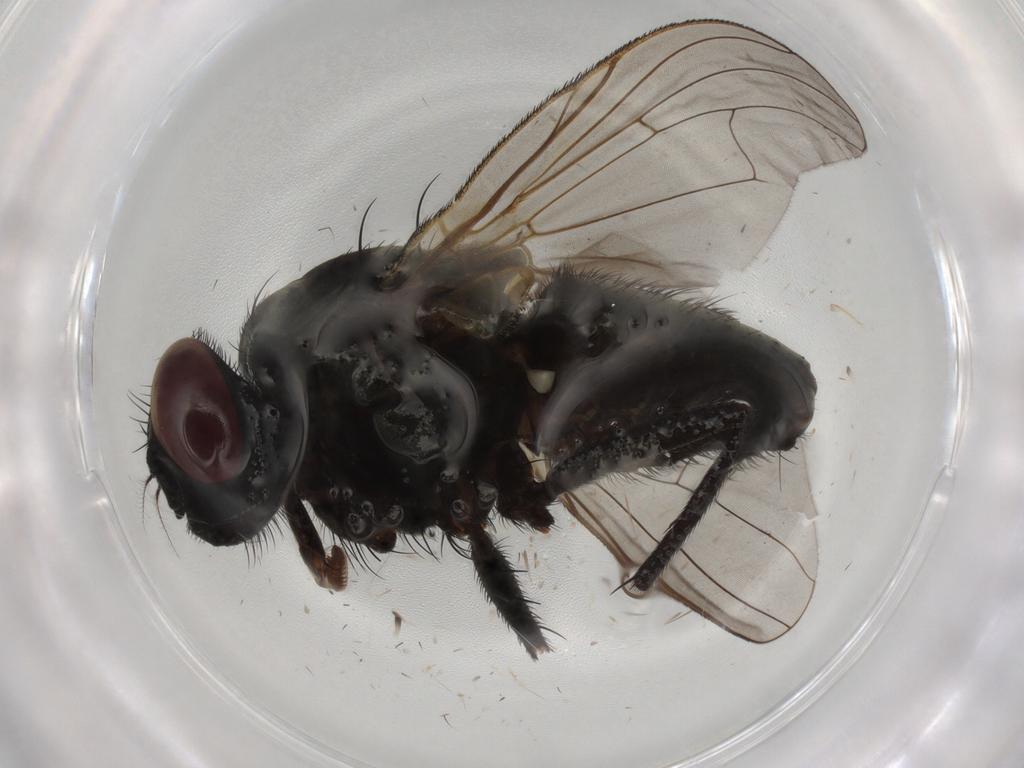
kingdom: Animalia
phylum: Arthropoda
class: Insecta
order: Diptera
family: Muscidae
